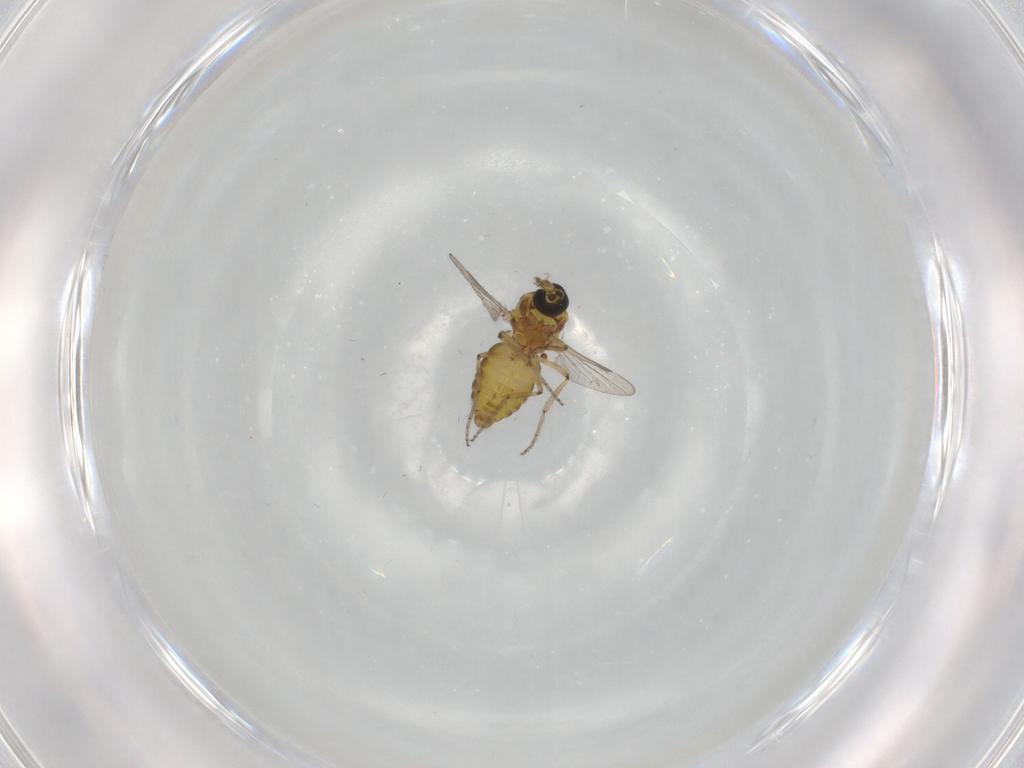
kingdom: Animalia
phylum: Arthropoda
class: Insecta
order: Diptera
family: Ceratopogonidae
